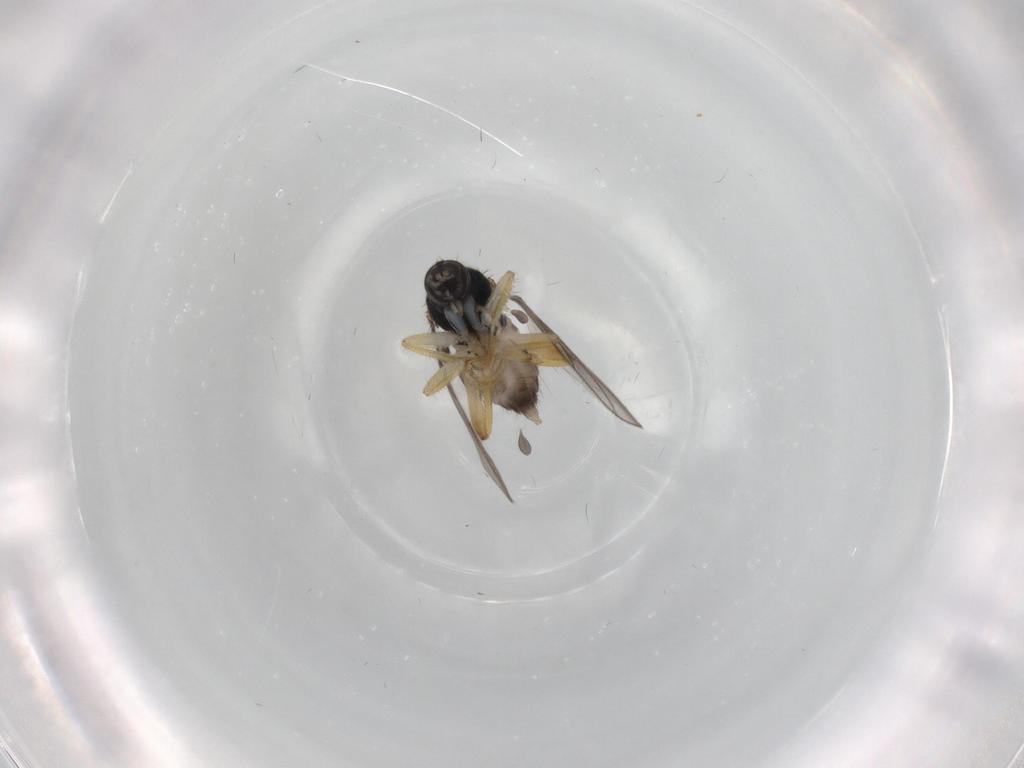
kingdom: Animalia
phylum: Arthropoda
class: Insecta
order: Diptera
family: Hybotidae
